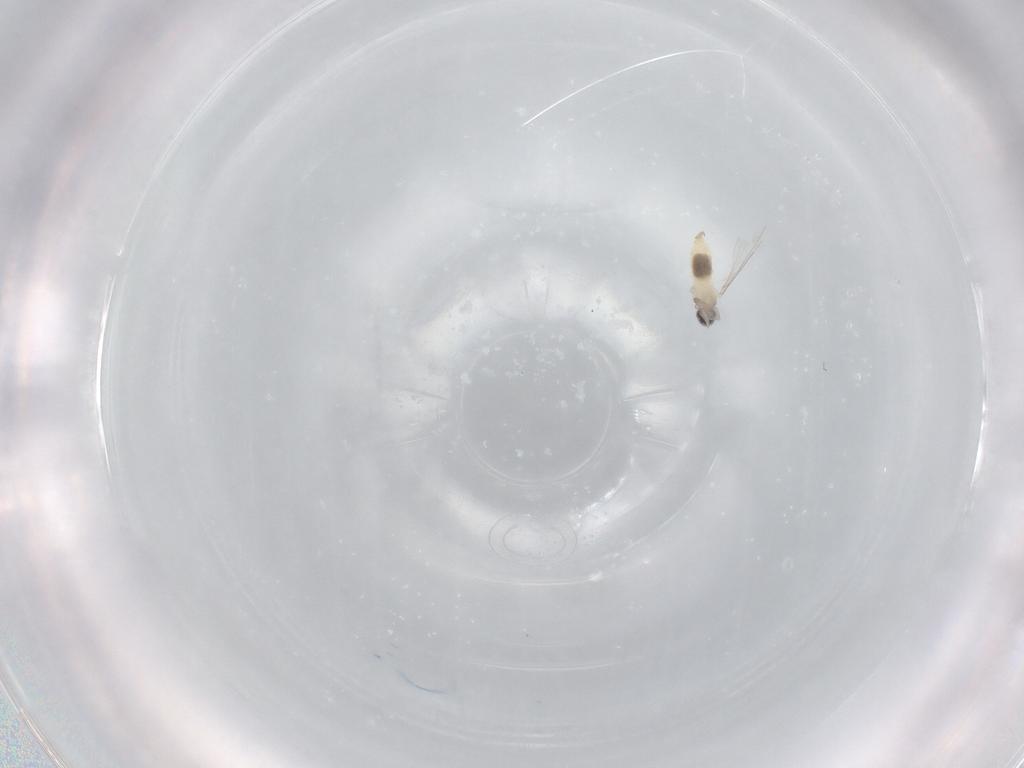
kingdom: Animalia
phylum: Arthropoda
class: Insecta
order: Diptera
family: Cecidomyiidae
